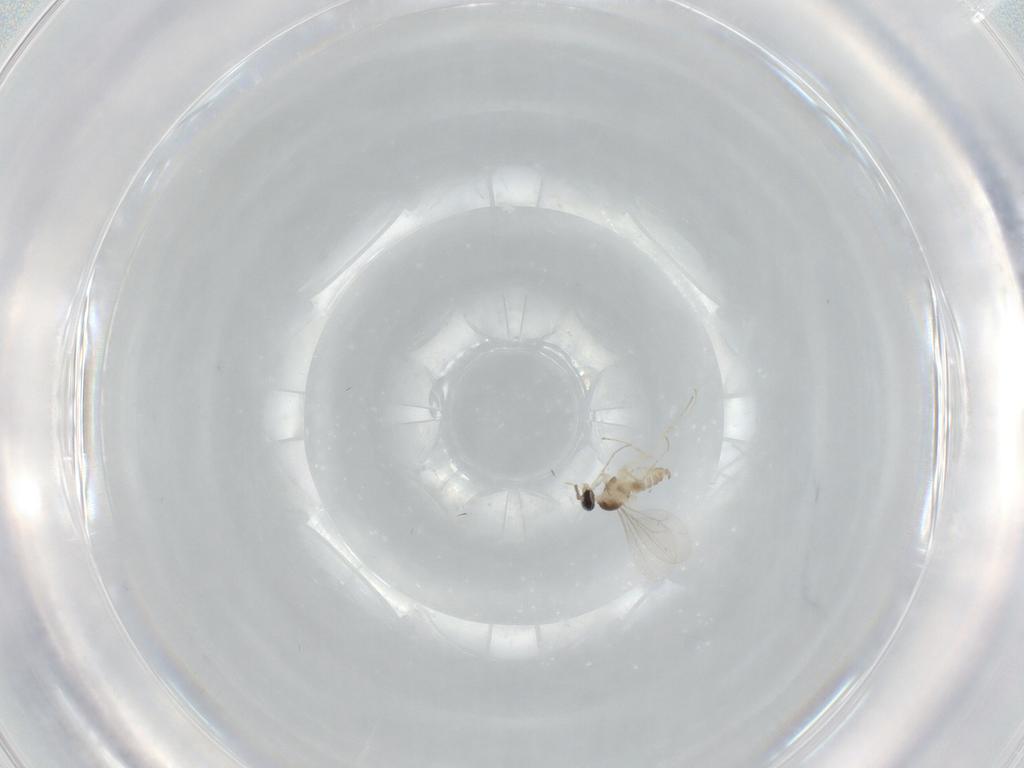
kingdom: Animalia
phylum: Arthropoda
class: Insecta
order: Diptera
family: Cecidomyiidae
